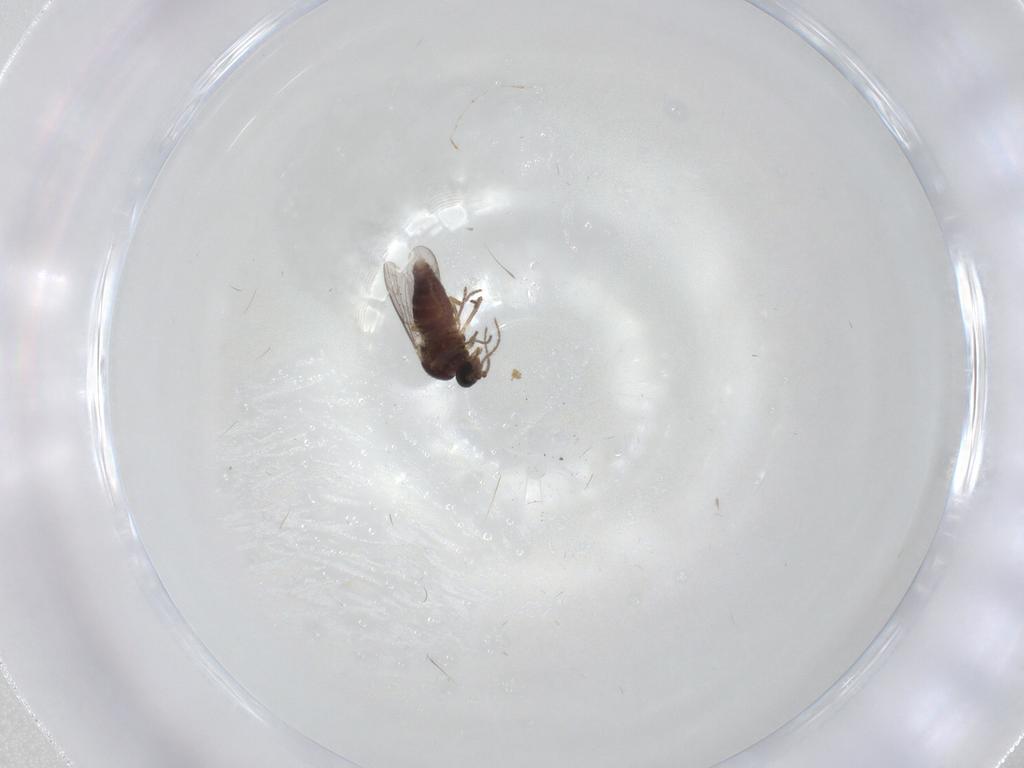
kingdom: Animalia
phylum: Arthropoda
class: Insecta
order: Diptera
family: Ceratopogonidae
